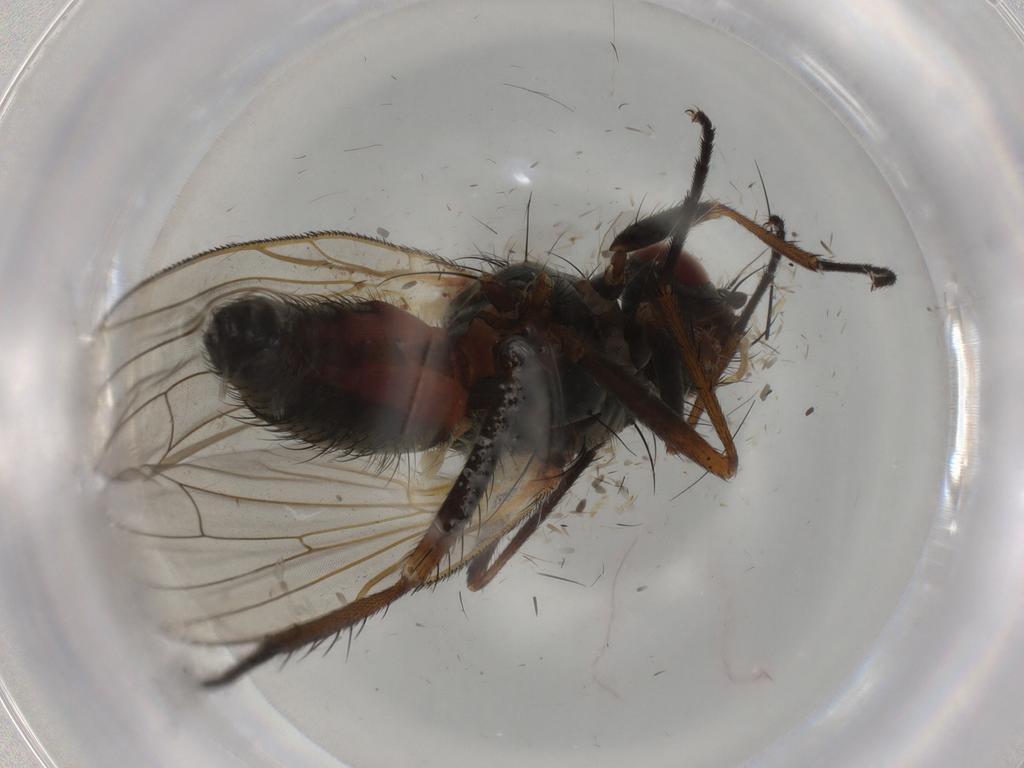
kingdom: Animalia
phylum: Arthropoda
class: Insecta
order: Diptera
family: Anthomyiidae
